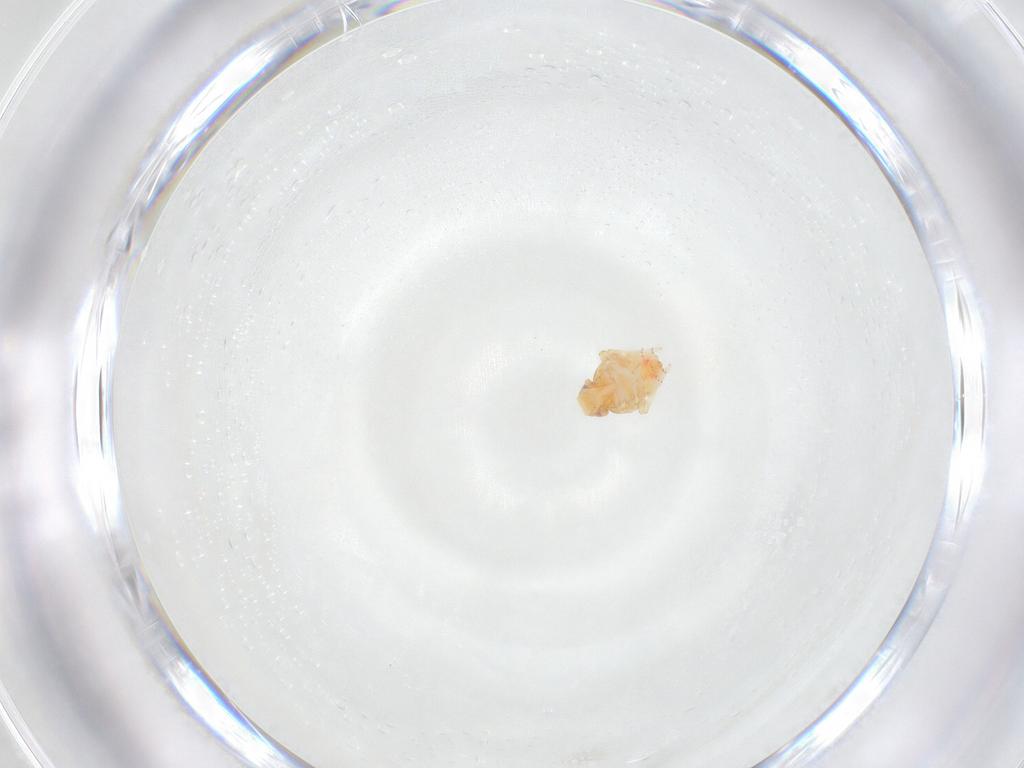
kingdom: Animalia
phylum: Arthropoda
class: Insecta
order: Hemiptera
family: Issidae
